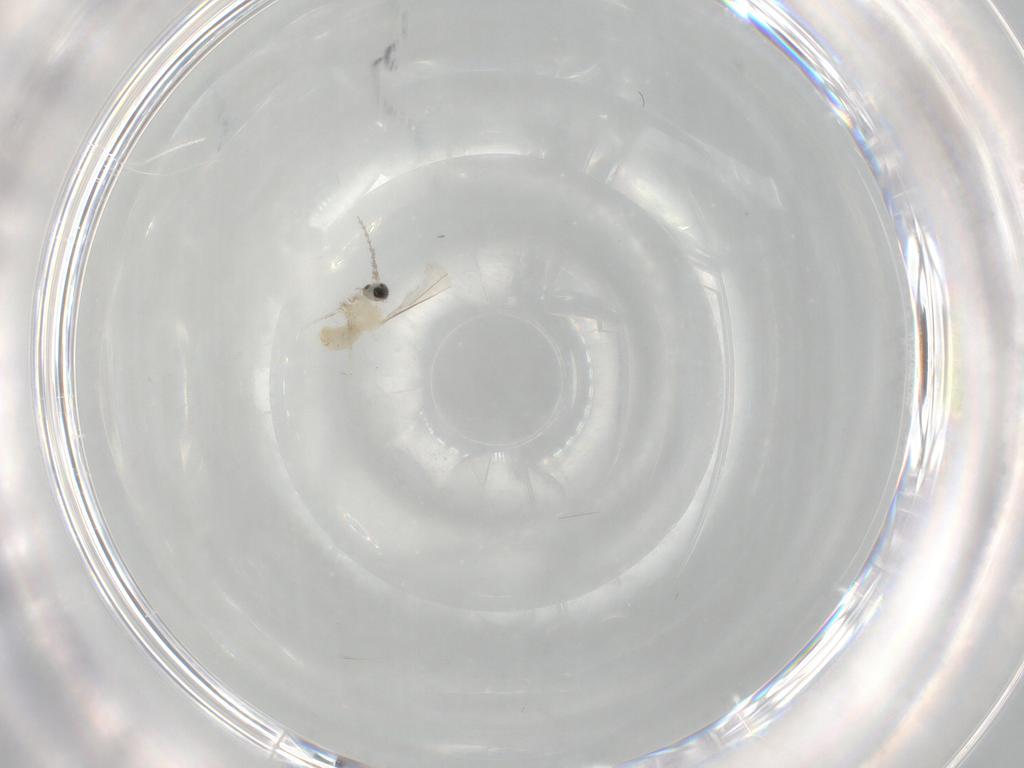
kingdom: Animalia
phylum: Arthropoda
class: Insecta
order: Diptera
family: Cecidomyiidae
